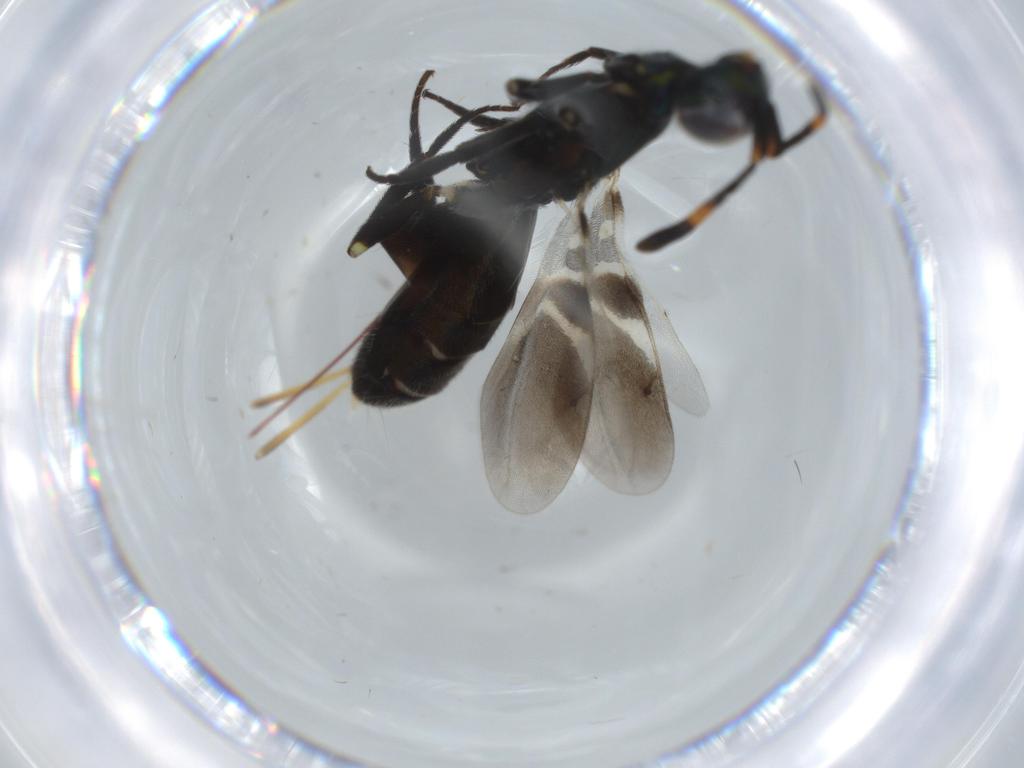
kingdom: Animalia
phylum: Arthropoda
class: Insecta
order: Hymenoptera
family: Eupelmidae
